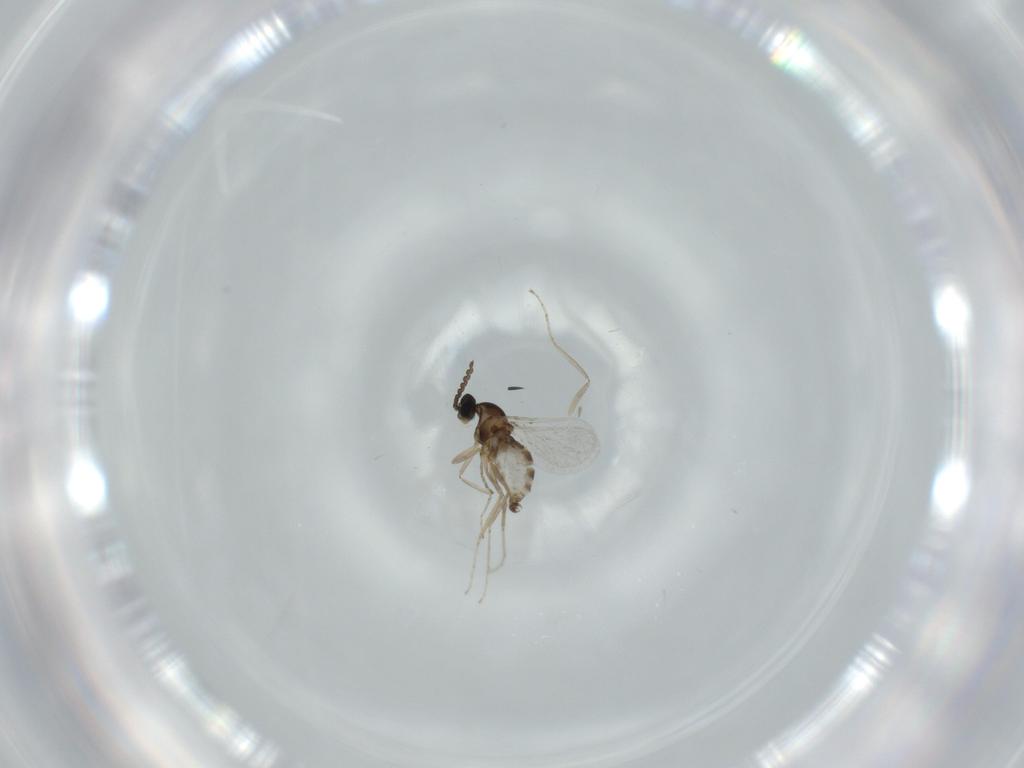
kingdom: Animalia
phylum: Arthropoda
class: Insecta
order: Diptera
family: Cecidomyiidae
